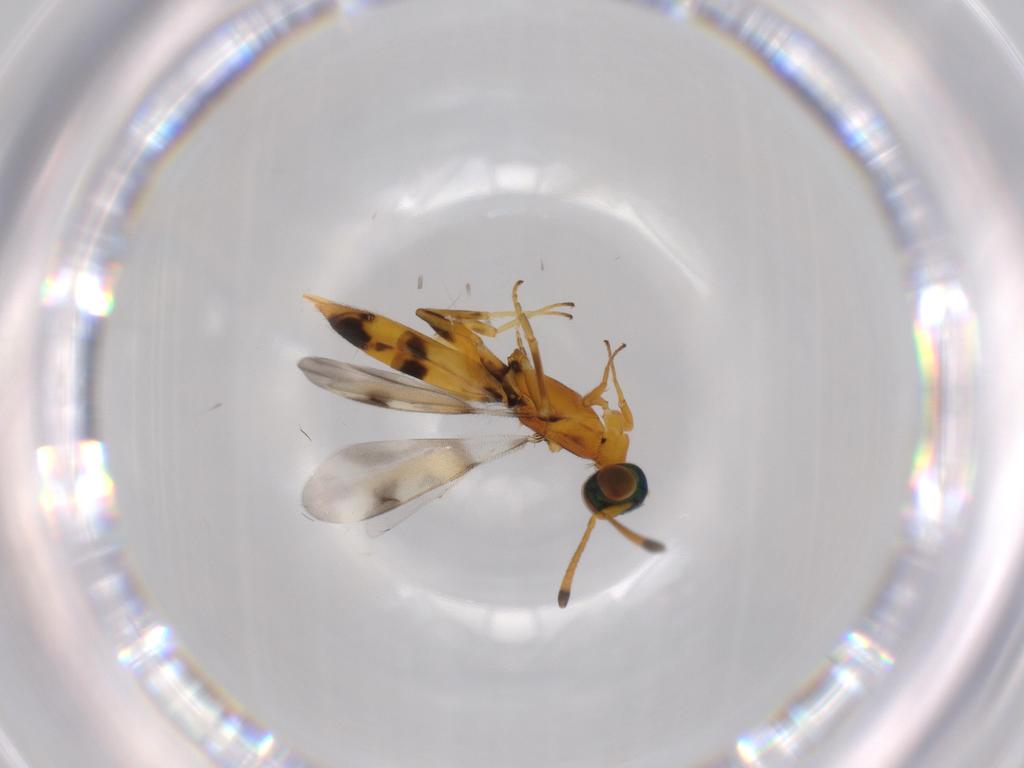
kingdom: Animalia
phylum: Arthropoda
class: Insecta
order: Hymenoptera
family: Eupelmidae
